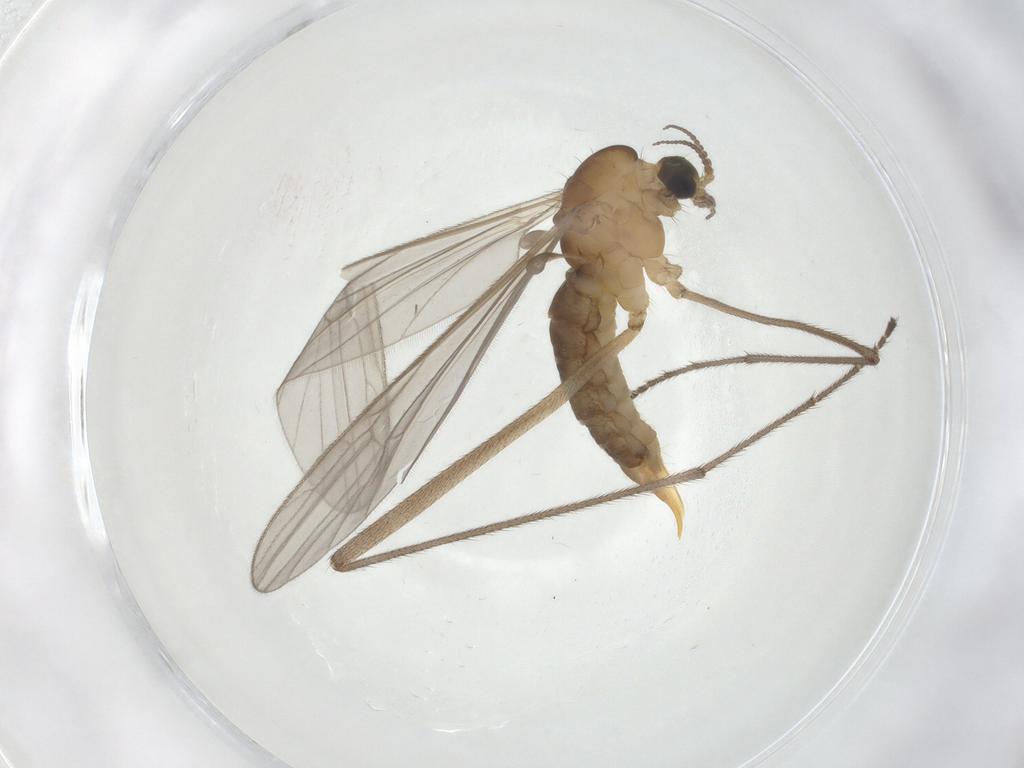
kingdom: Animalia
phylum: Arthropoda
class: Insecta
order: Diptera
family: Limoniidae
